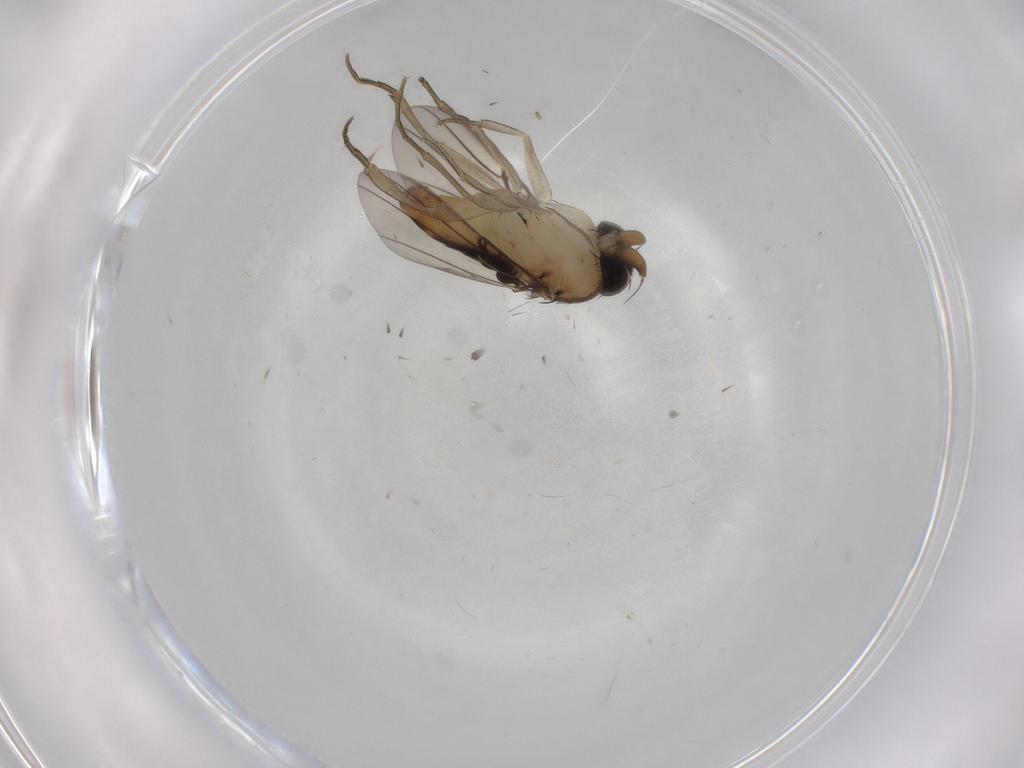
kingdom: Animalia
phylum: Arthropoda
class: Insecta
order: Diptera
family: Phoridae
